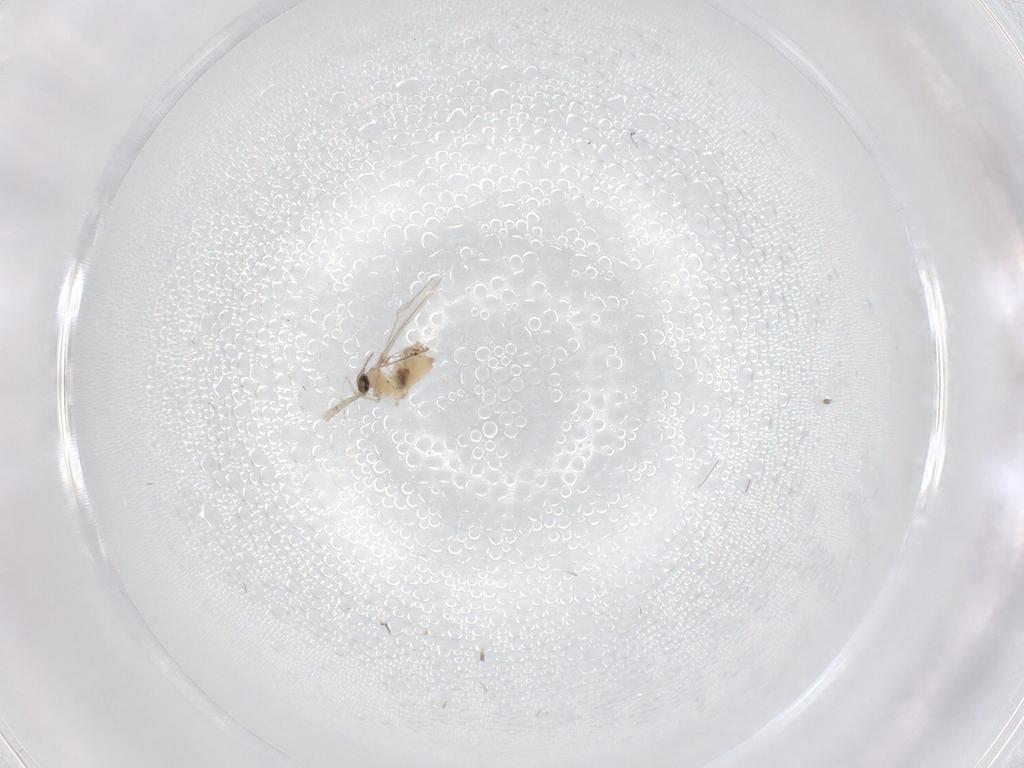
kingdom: Animalia
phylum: Arthropoda
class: Insecta
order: Diptera
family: Cecidomyiidae
